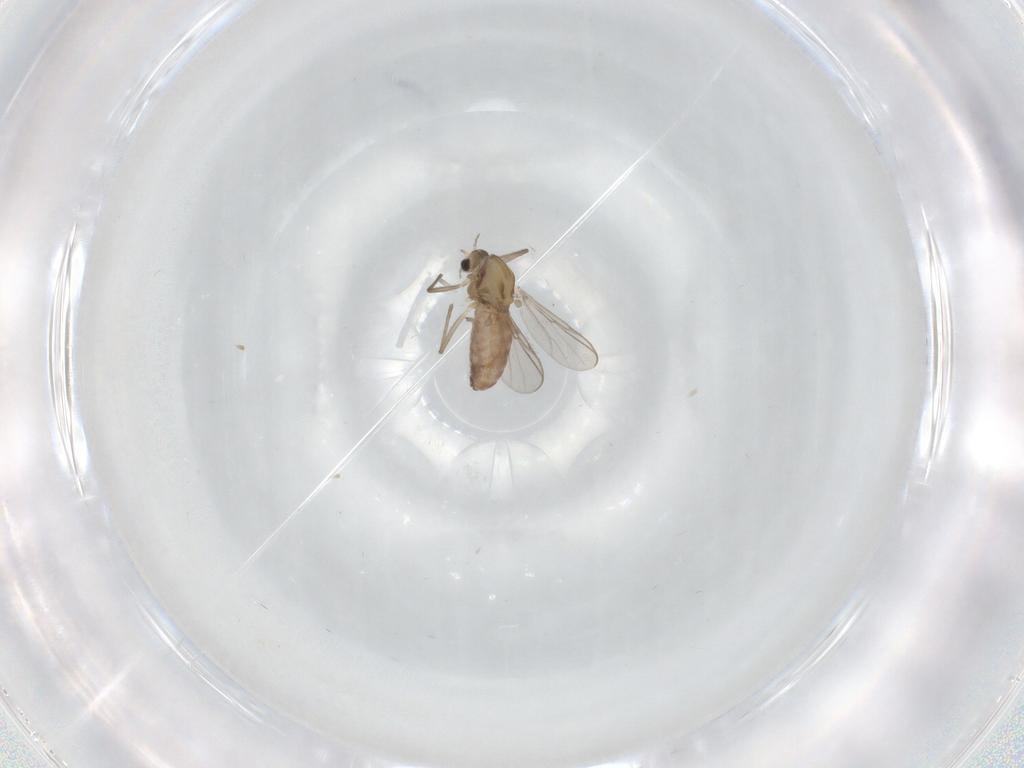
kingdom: Animalia
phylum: Arthropoda
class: Insecta
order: Diptera
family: Chironomidae
